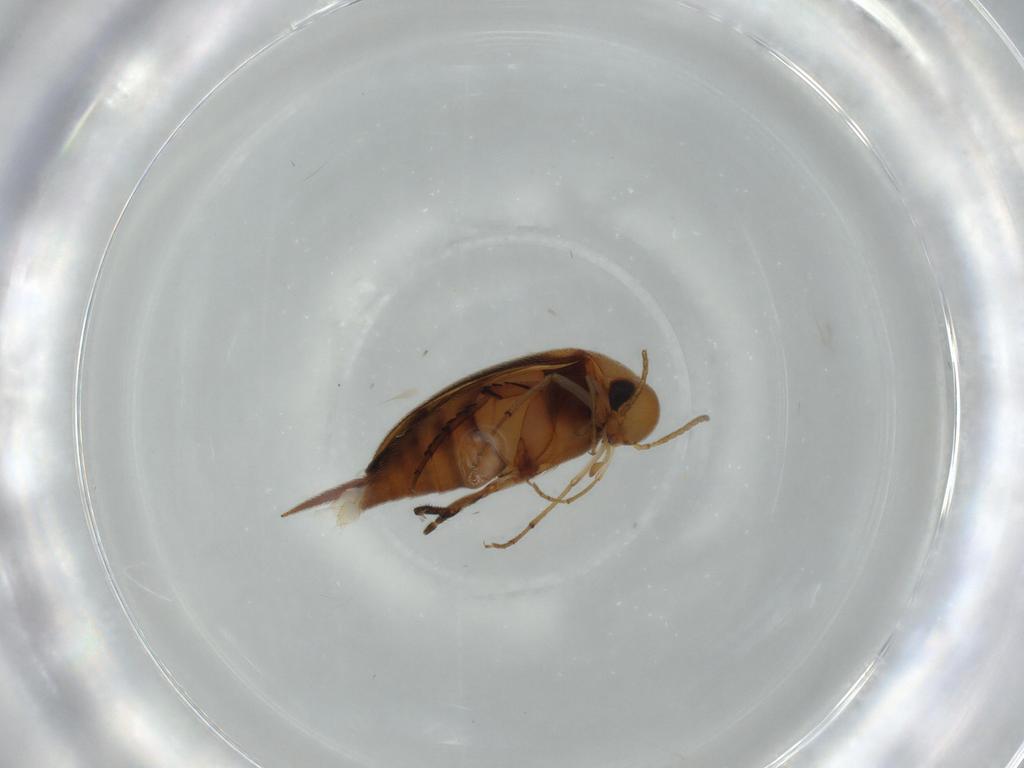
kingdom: Animalia
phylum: Arthropoda
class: Insecta
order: Coleoptera
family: Mordellidae
